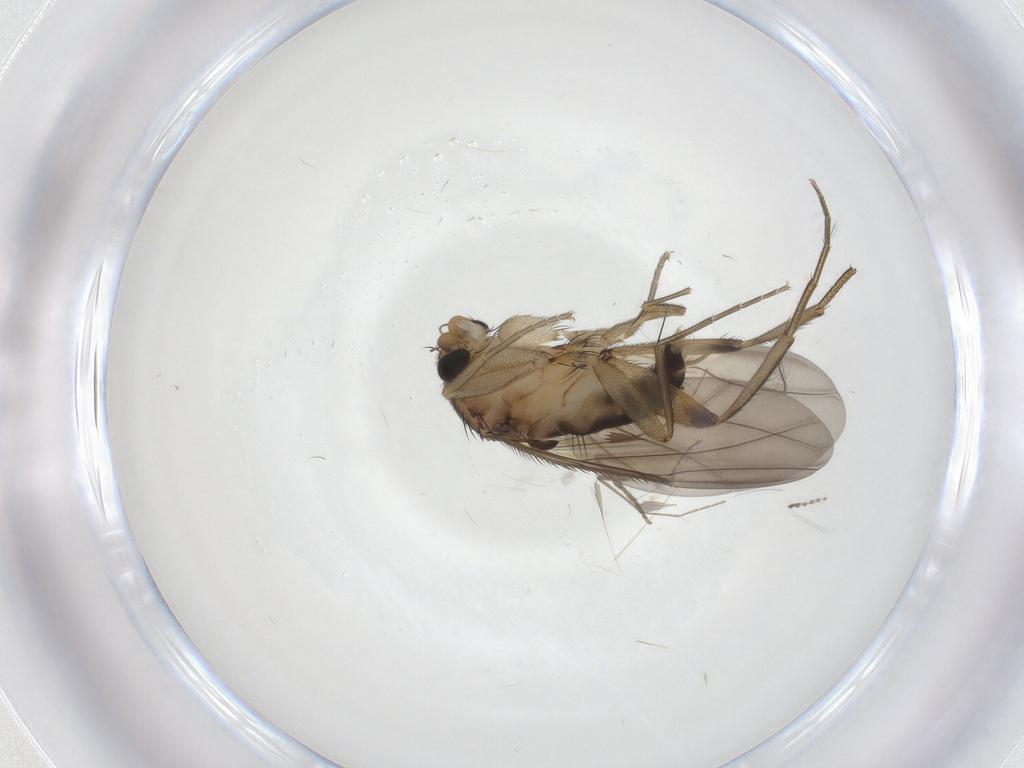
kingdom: Animalia
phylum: Arthropoda
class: Insecta
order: Diptera
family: Phoridae
